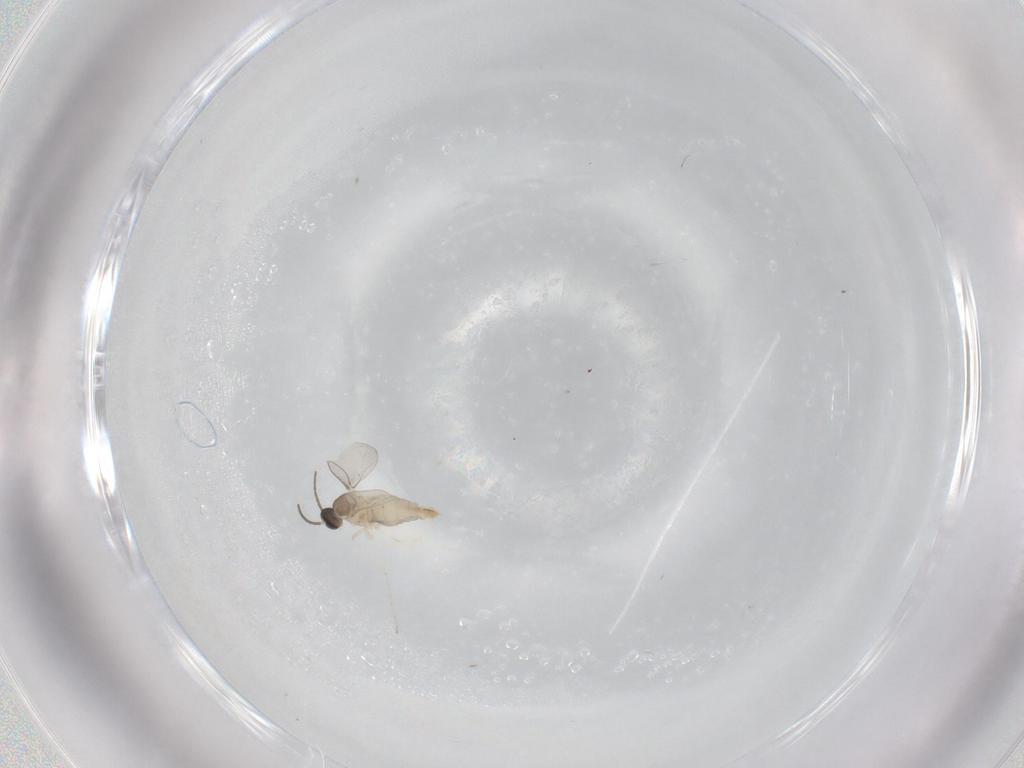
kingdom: Animalia
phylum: Arthropoda
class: Insecta
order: Diptera
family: Cecidomyiidae
